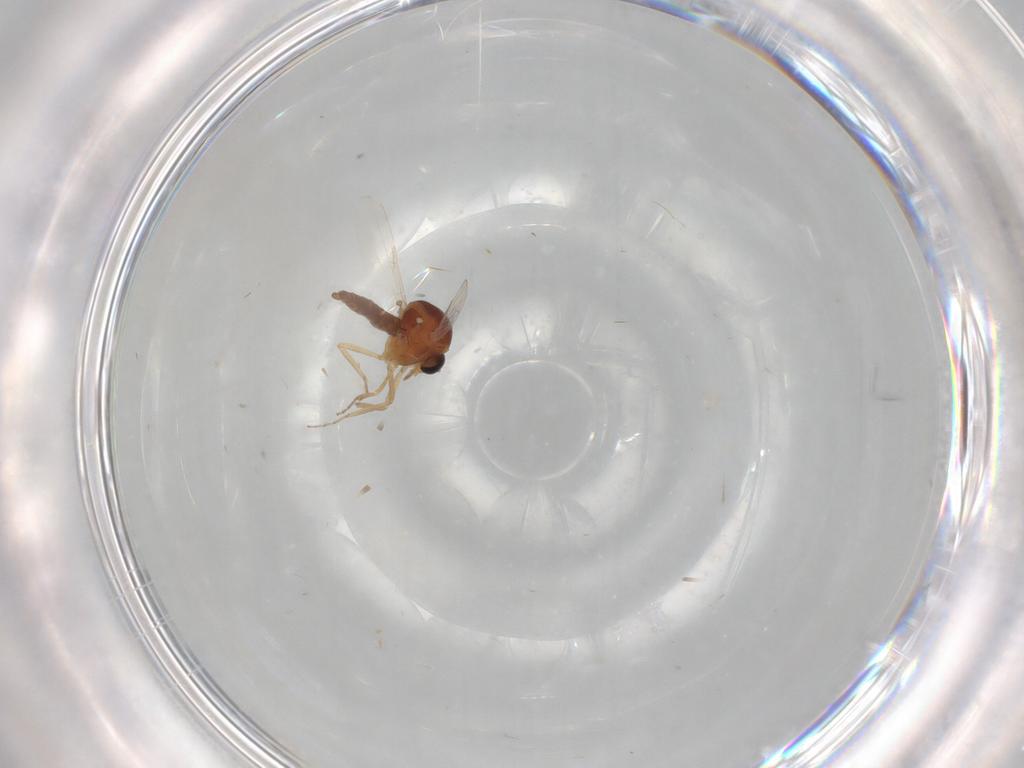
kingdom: Animalia
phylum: Arthropoda
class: Insecta
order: Diptera
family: Ceratopogonidae
